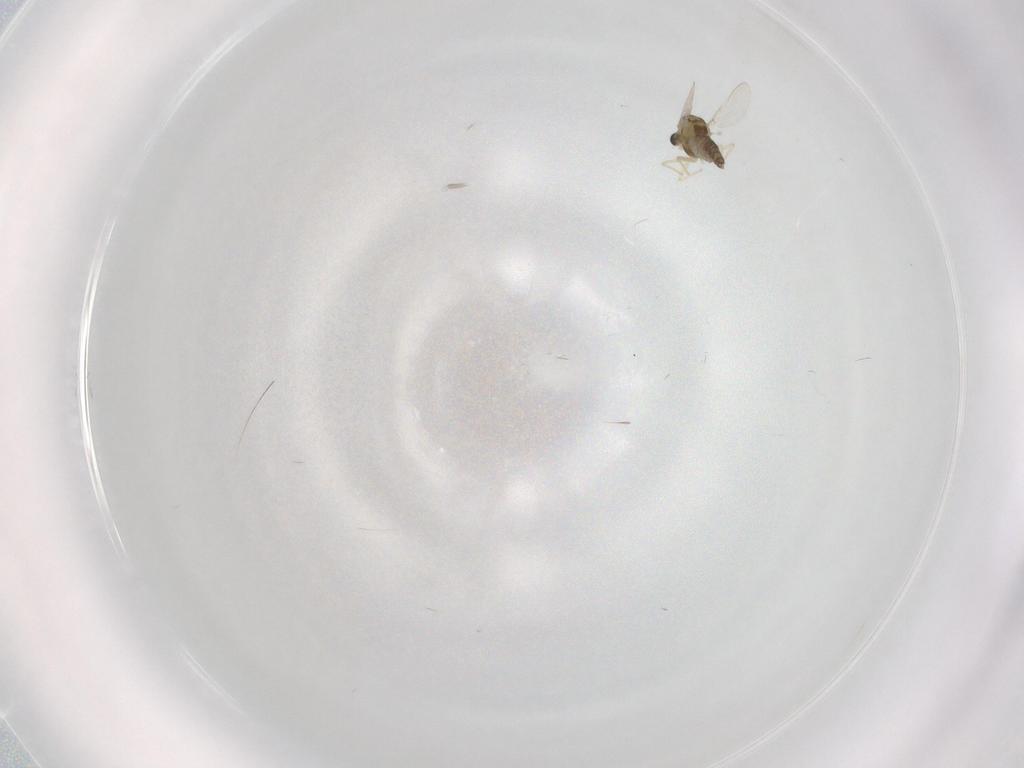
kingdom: Animalia
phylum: Arthropoda
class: Insecta
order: Diptera
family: Chironomidae
